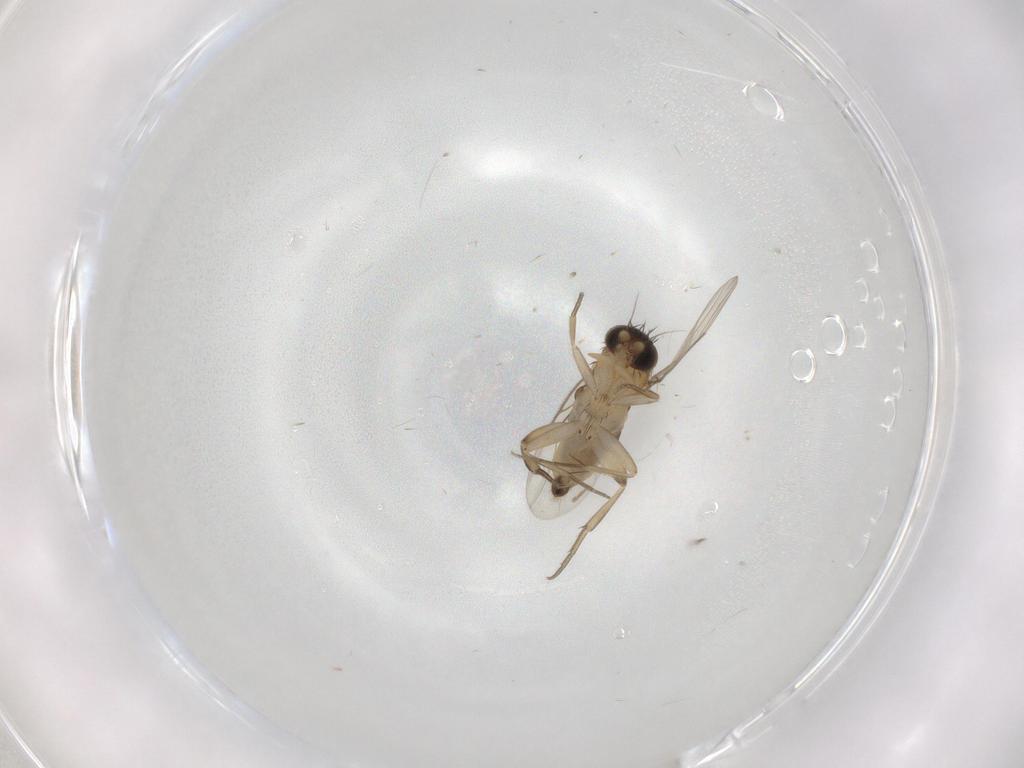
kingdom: Animalia
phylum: Arthropoda
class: Insecta
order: Diptera
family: Phoridae
